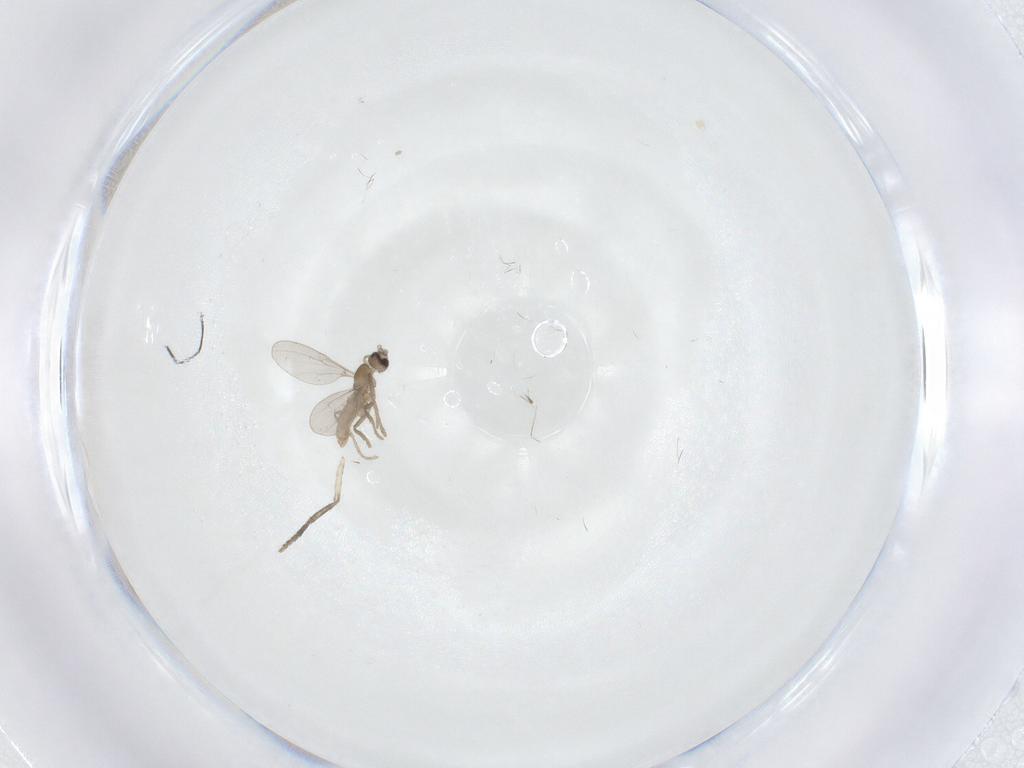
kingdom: Animalia
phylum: Arthropoda
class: Insecta
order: Diptera
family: Cecidomyiidae
